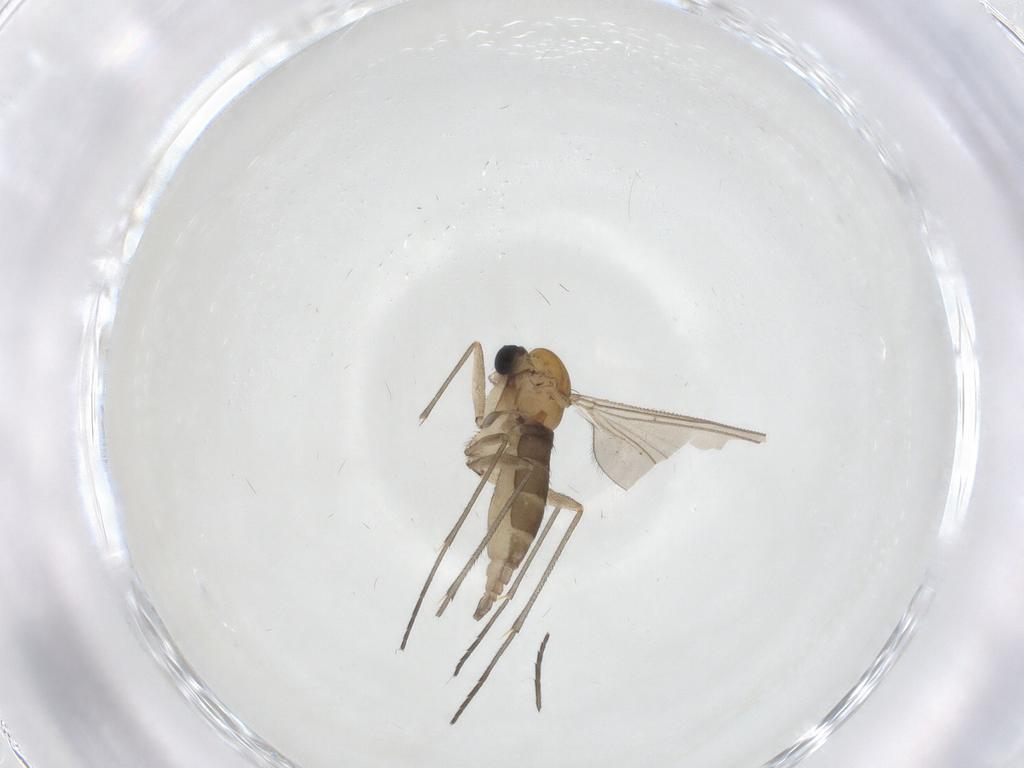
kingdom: Animalia
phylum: Arthropoda
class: Insecta
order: Diptera
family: Sciaridae
